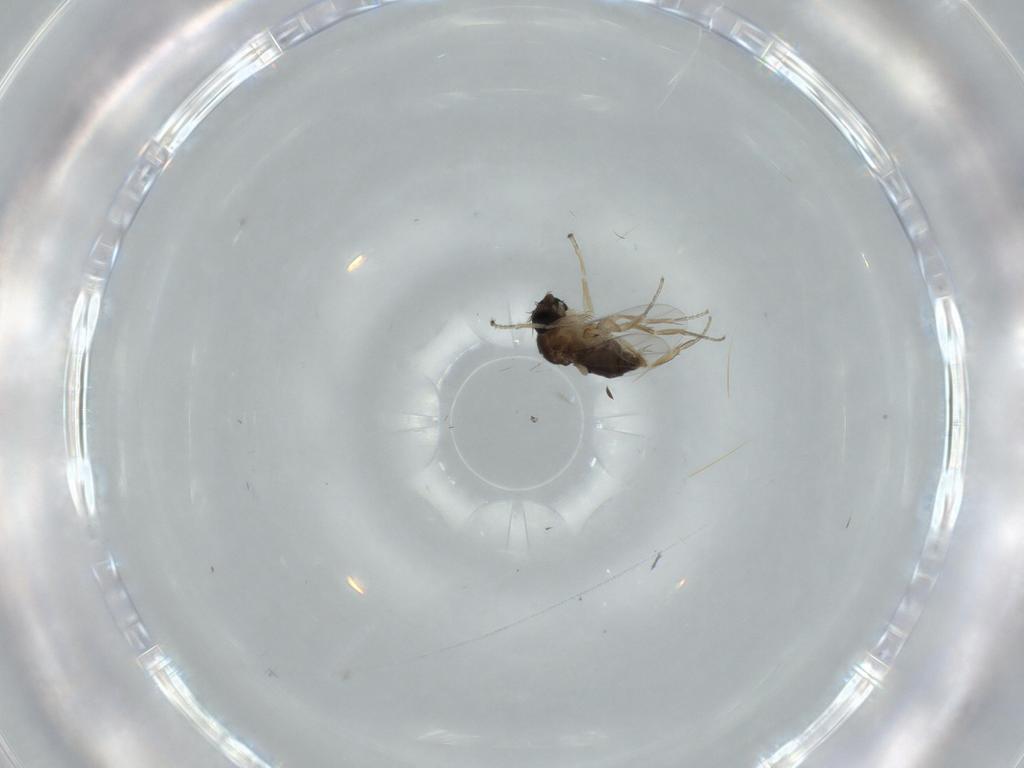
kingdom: Animalia
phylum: Arthropoda
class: Insecta
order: Diptera
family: Phoridae
